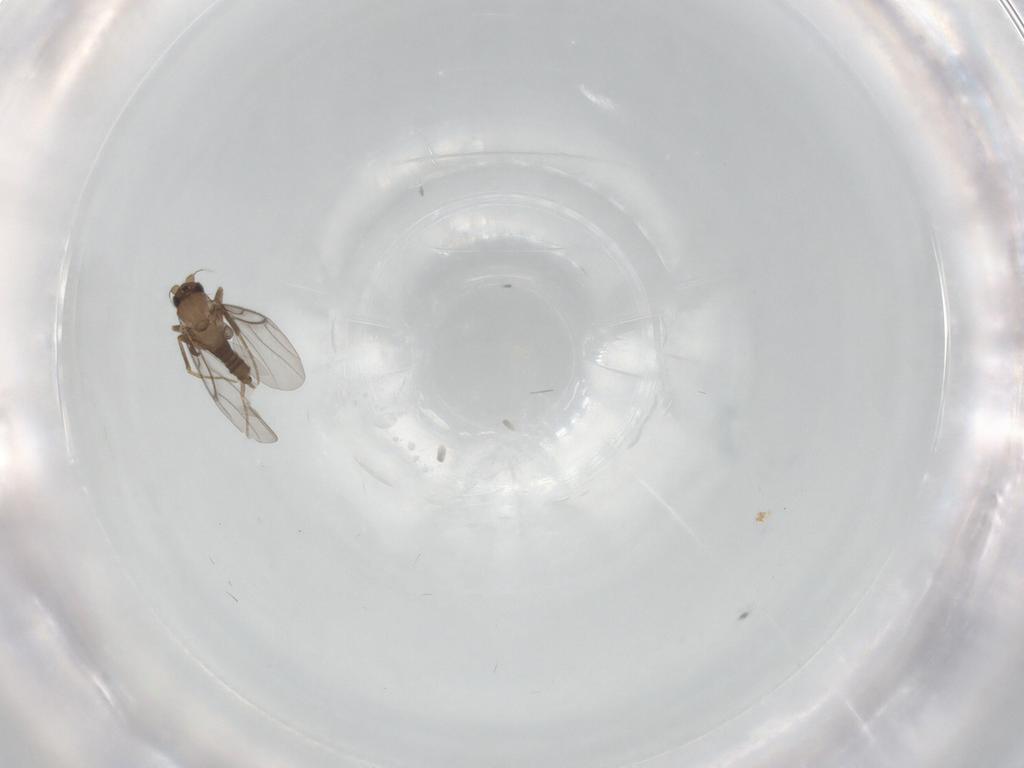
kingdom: Animalia
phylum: Arthropoda
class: Insecta
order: Diptera
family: Ceratopogonidae
